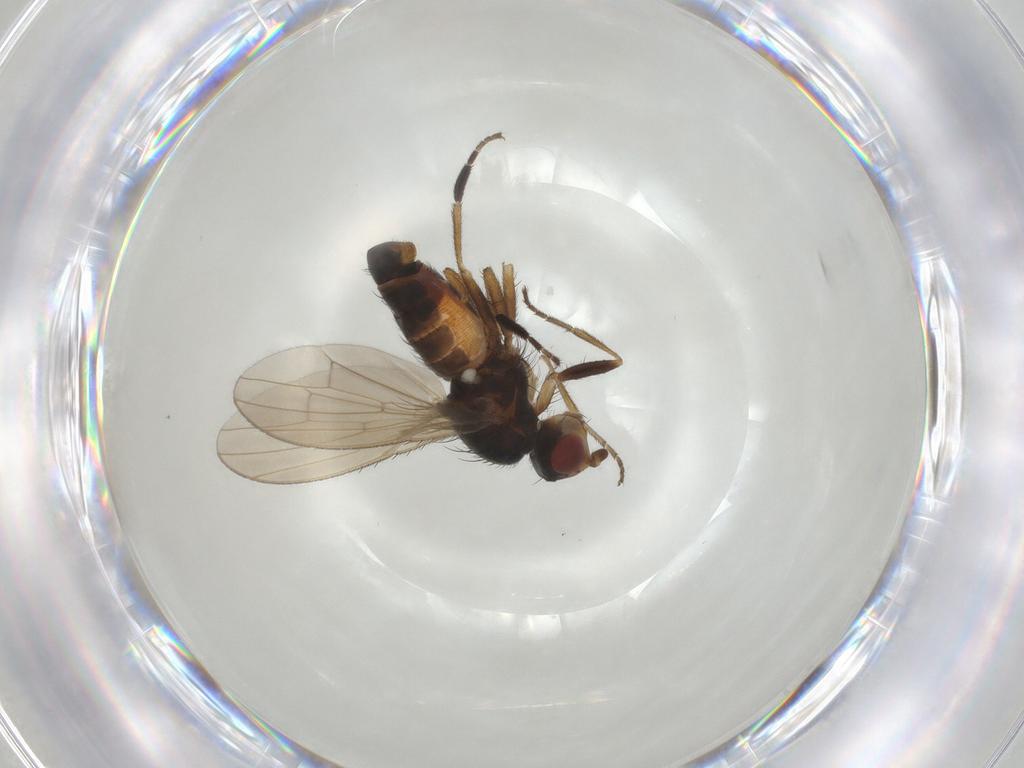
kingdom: Animalia
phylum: Arthropoda
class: Insecta
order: Diptera
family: Heleomyzidae
